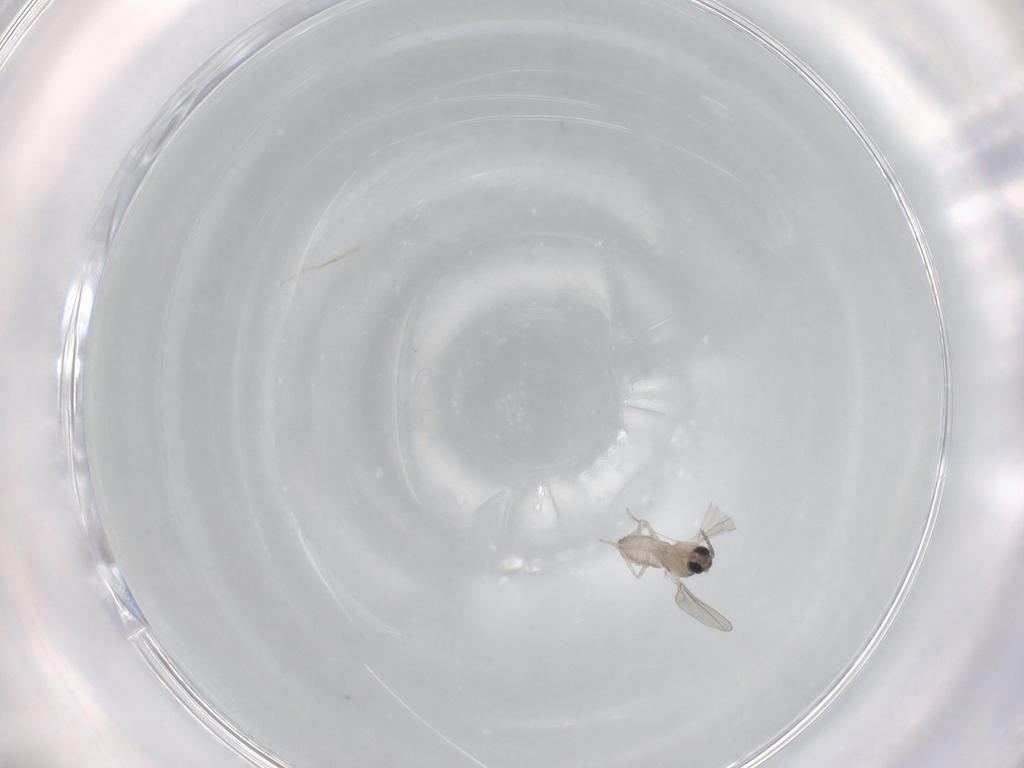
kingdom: Animalia
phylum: Arthropoda
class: Insecta
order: Diptera
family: Cecidomyiidae
